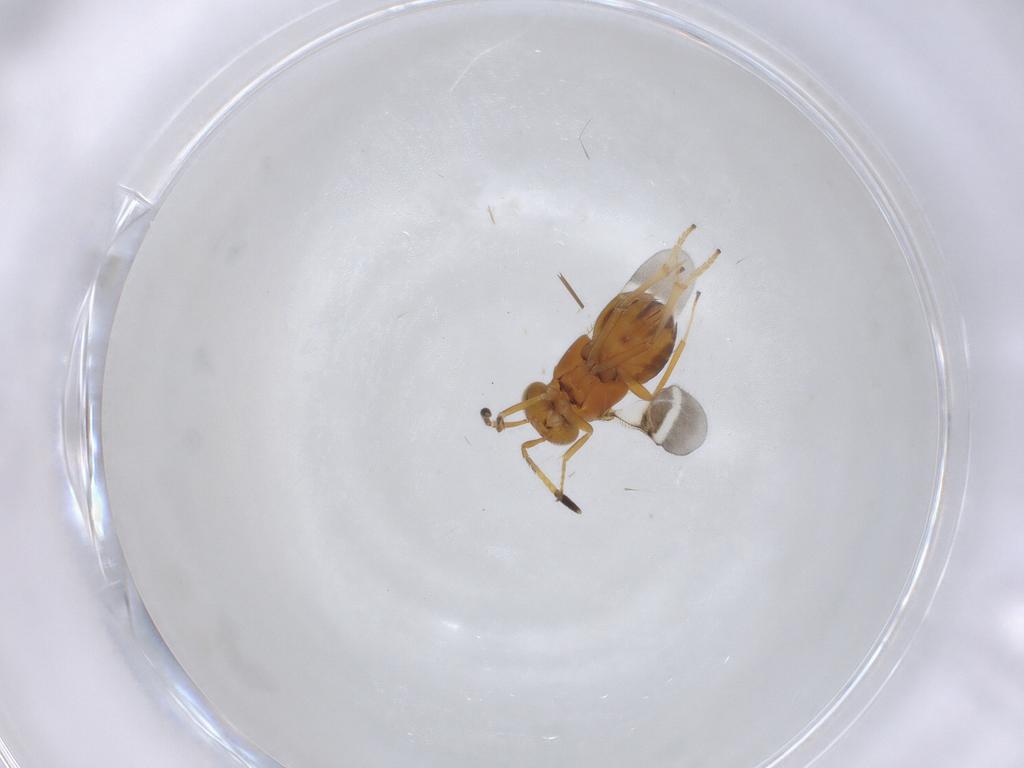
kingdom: Animalia
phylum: Arthropoda
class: Insecta
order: Hymenoptera
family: Encyrtidae
